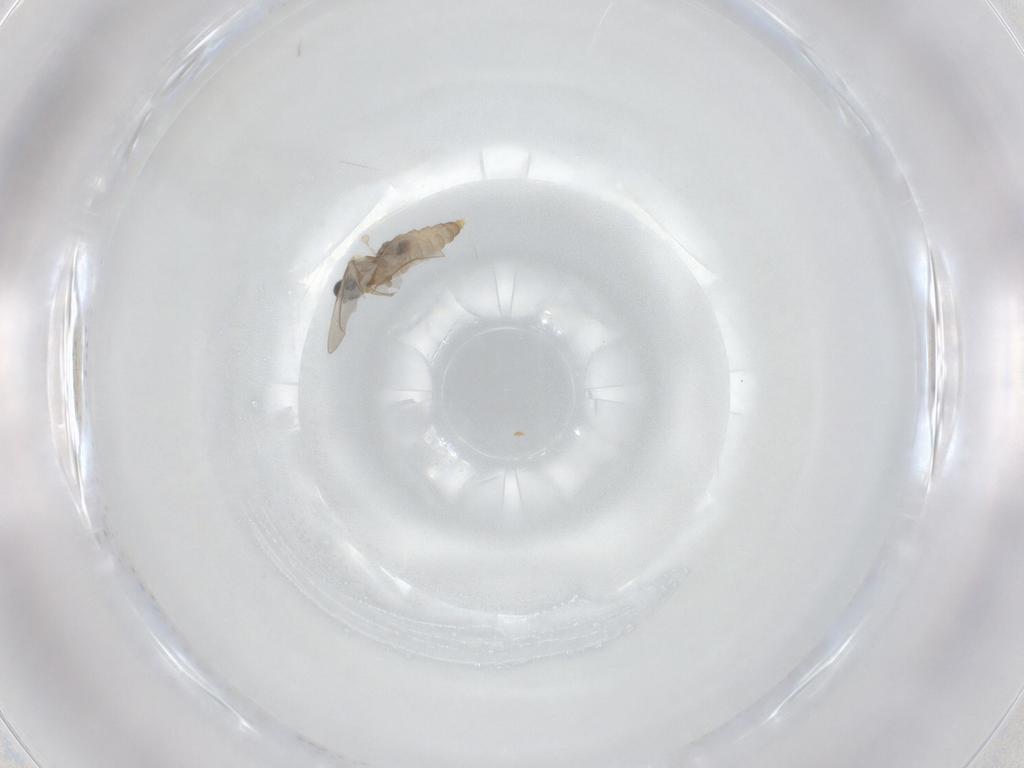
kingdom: Animalia
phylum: Arthropoda
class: Insecta
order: Diptera
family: Cecidomyiidae
